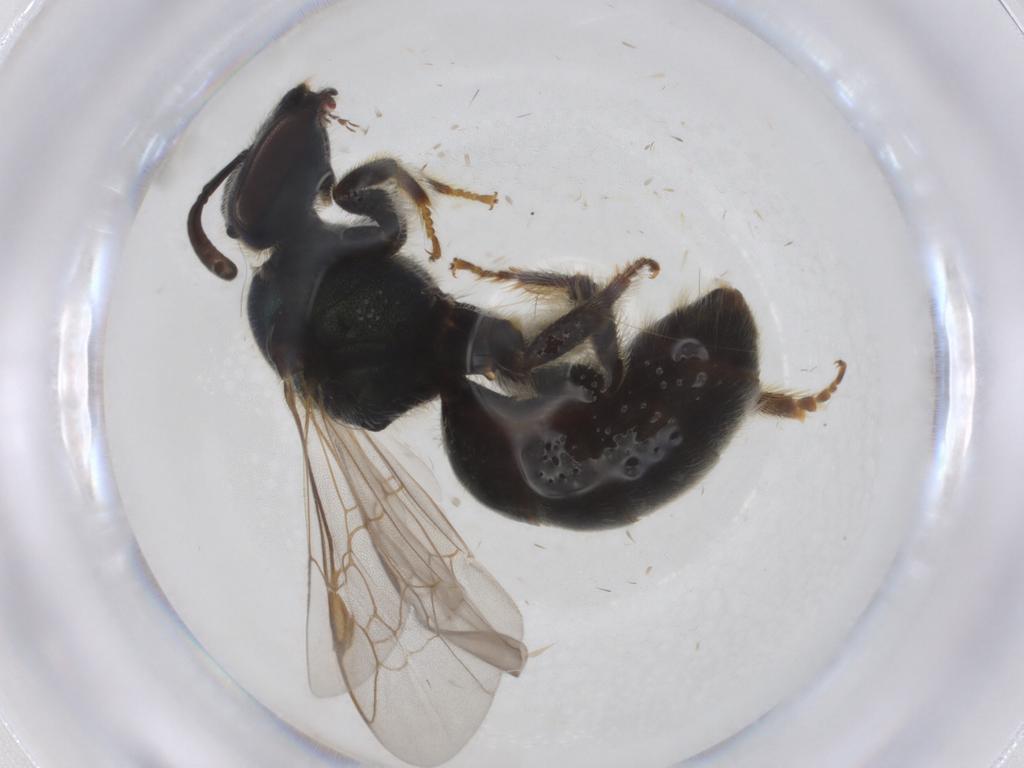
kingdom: Animalia
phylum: Arthropoda
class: Insecta
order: Hymenoptera
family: Halictidae
